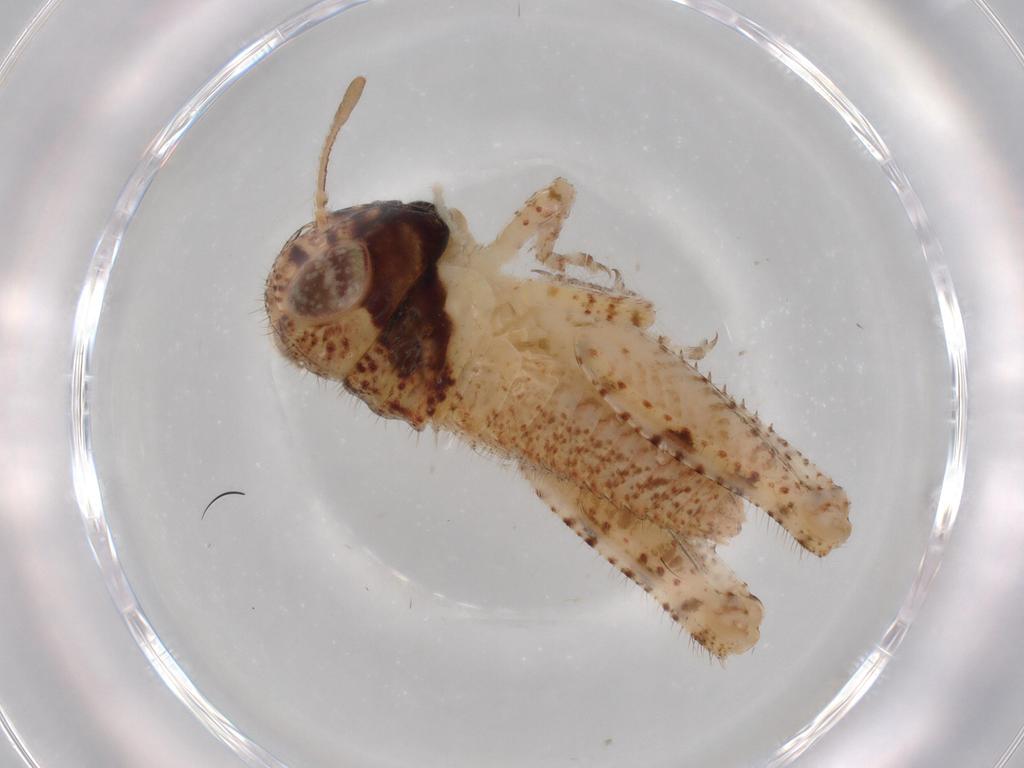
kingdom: Animalia
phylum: Arthropoda
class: Insecta
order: Orthoptera
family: Acrididae
